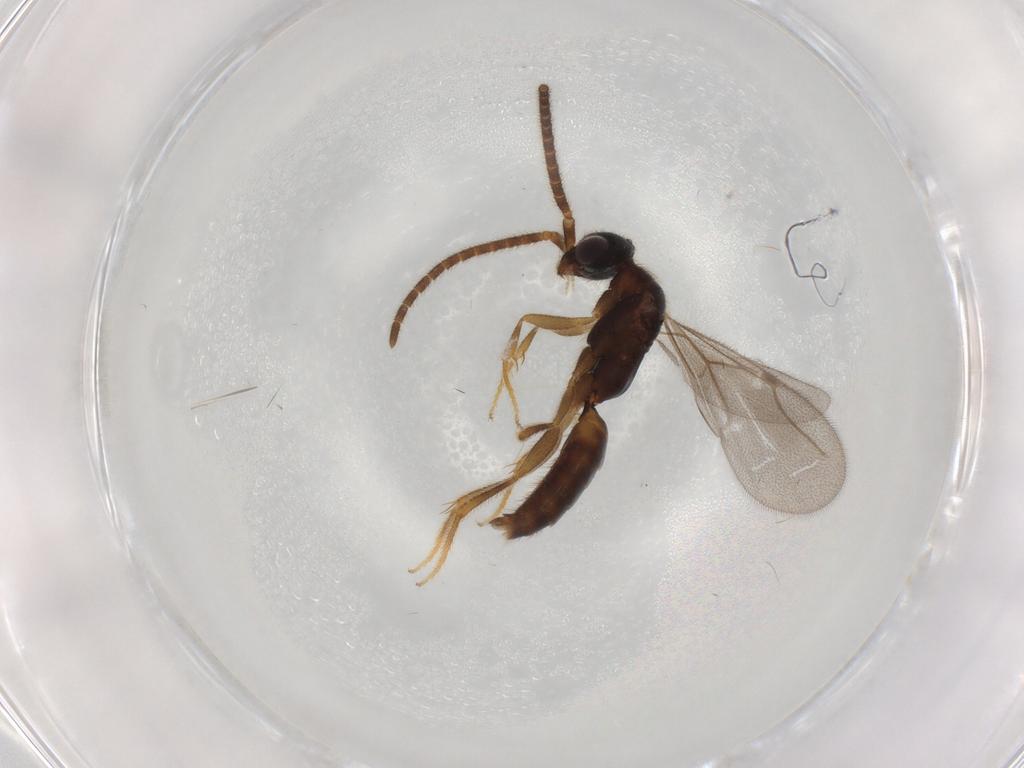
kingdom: Animalia
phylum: Arthropoda
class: Insecta
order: Hymenoptera
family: Bethylidae
